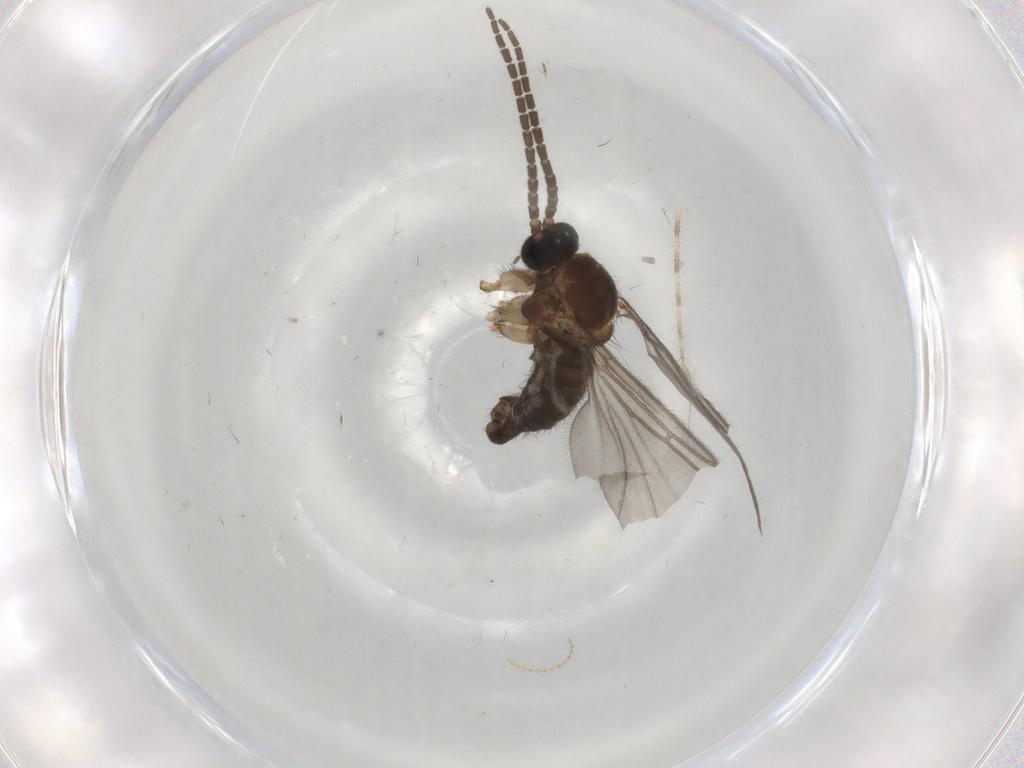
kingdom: Animalia
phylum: Arthropoda
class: Insecta
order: Diptera
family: Sciaridae
